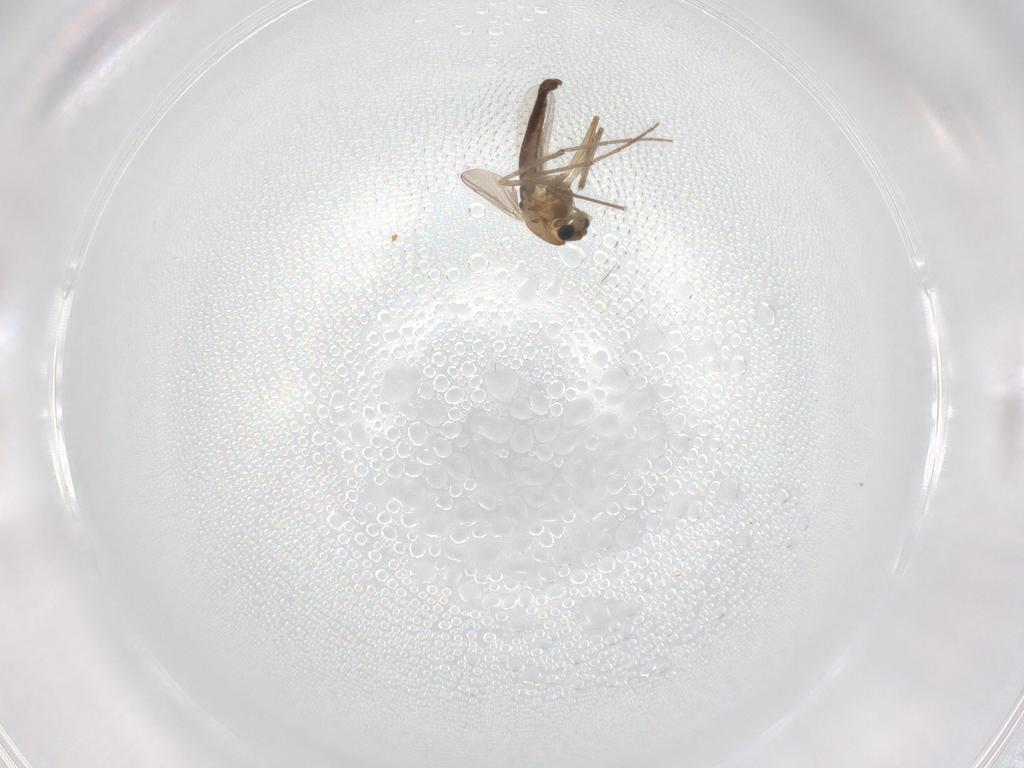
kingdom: Animalia
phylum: Arthropoda
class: Insecta
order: Diptera
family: Chironomidae
